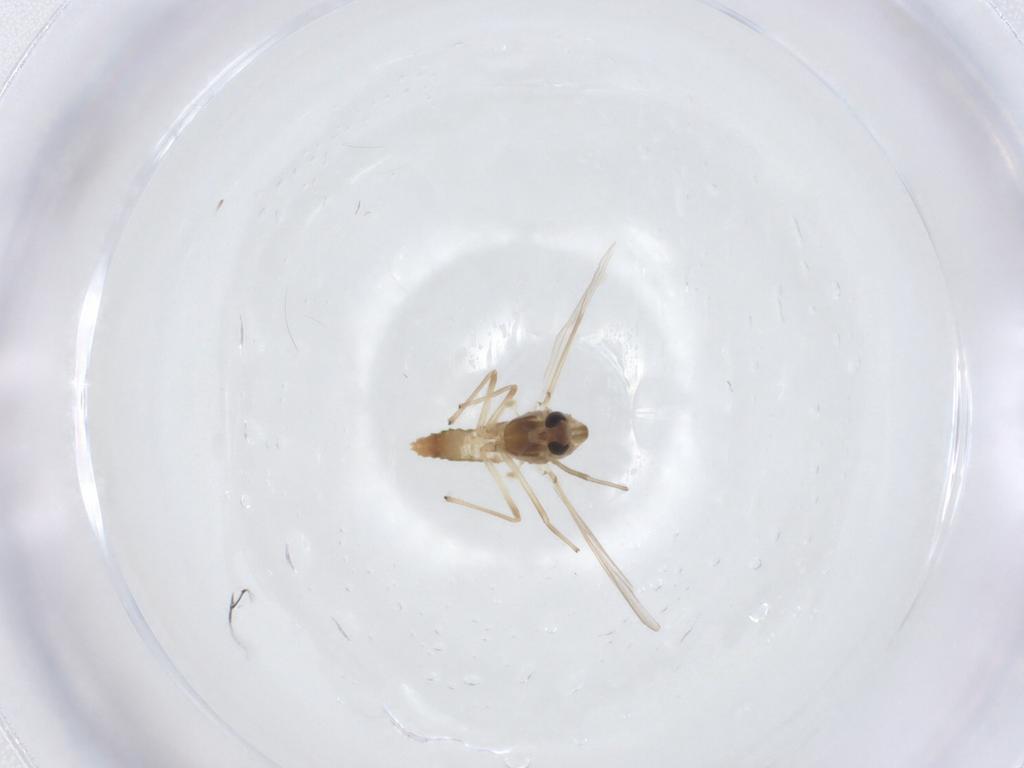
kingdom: Animalia
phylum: Arthropoda
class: Insecta
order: Diptera
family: Chironomidae
